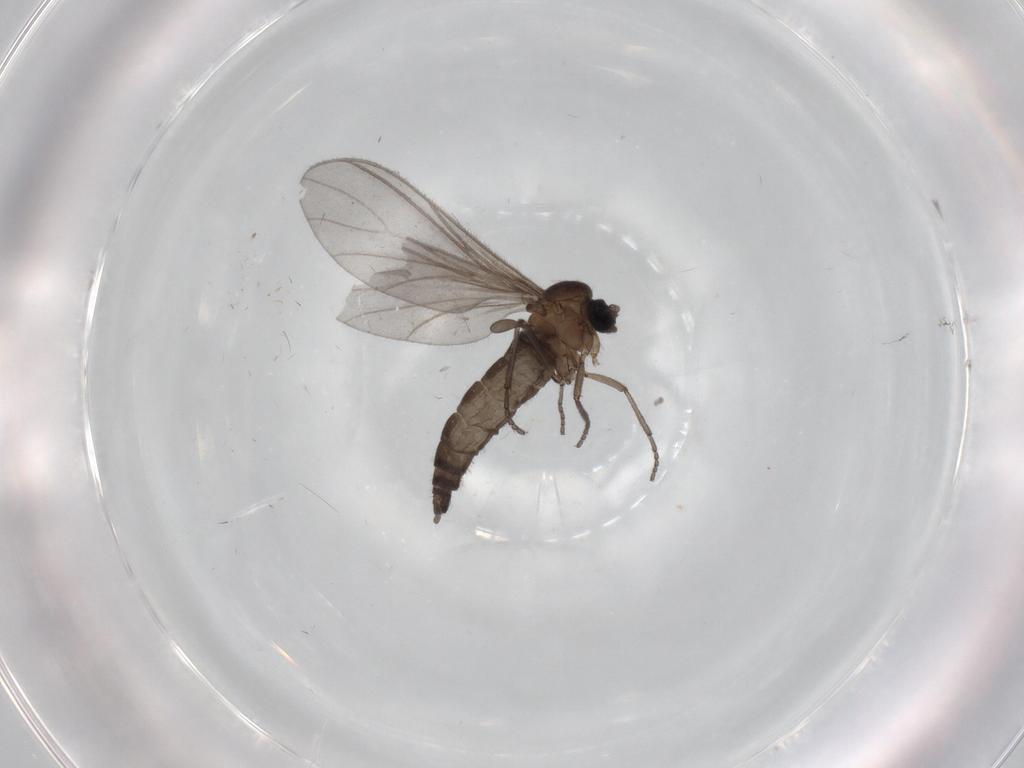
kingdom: Animalia
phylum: Arthropoda
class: Insecta
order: Diptera
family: Sciaridae
